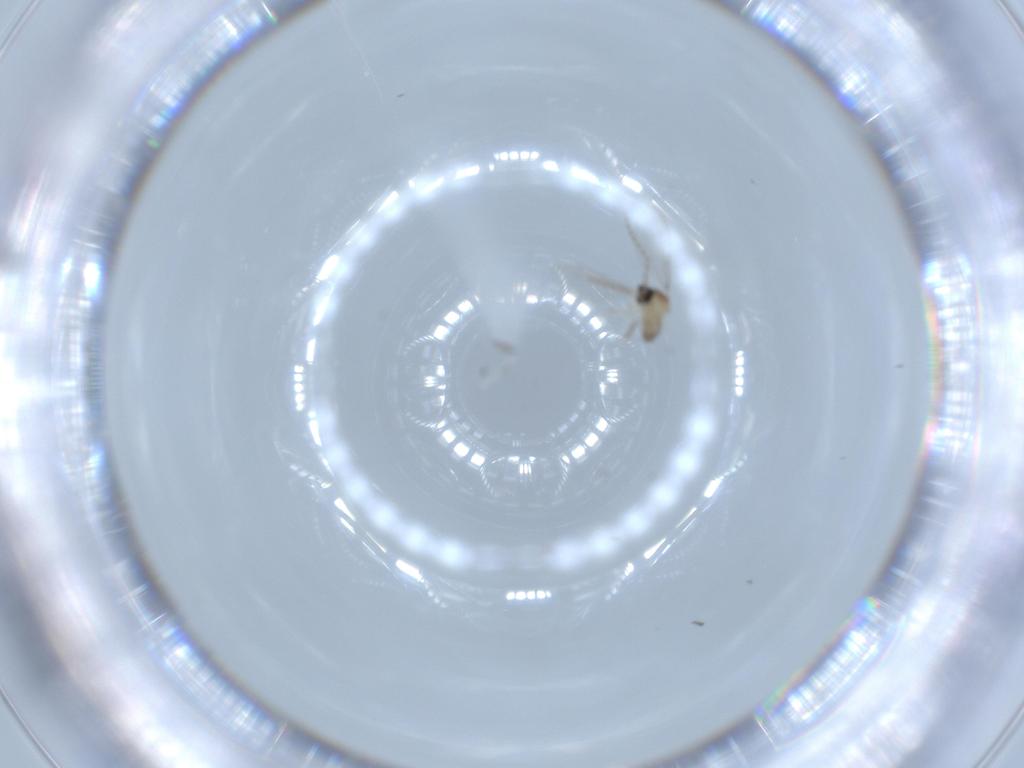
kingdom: Animalia
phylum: Arthropoda
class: Insecta
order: Diptera
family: Cecidomyiidae
